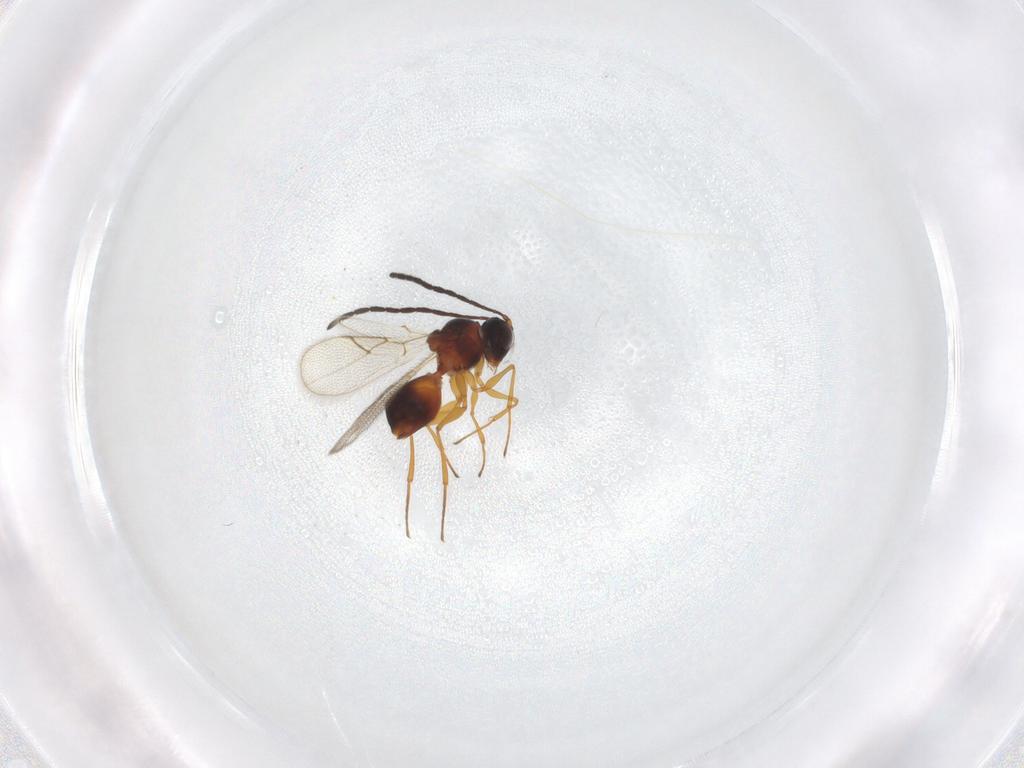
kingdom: Animalia
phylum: Arthropoda
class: Insecta
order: Hymenoptera
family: Figitidae
